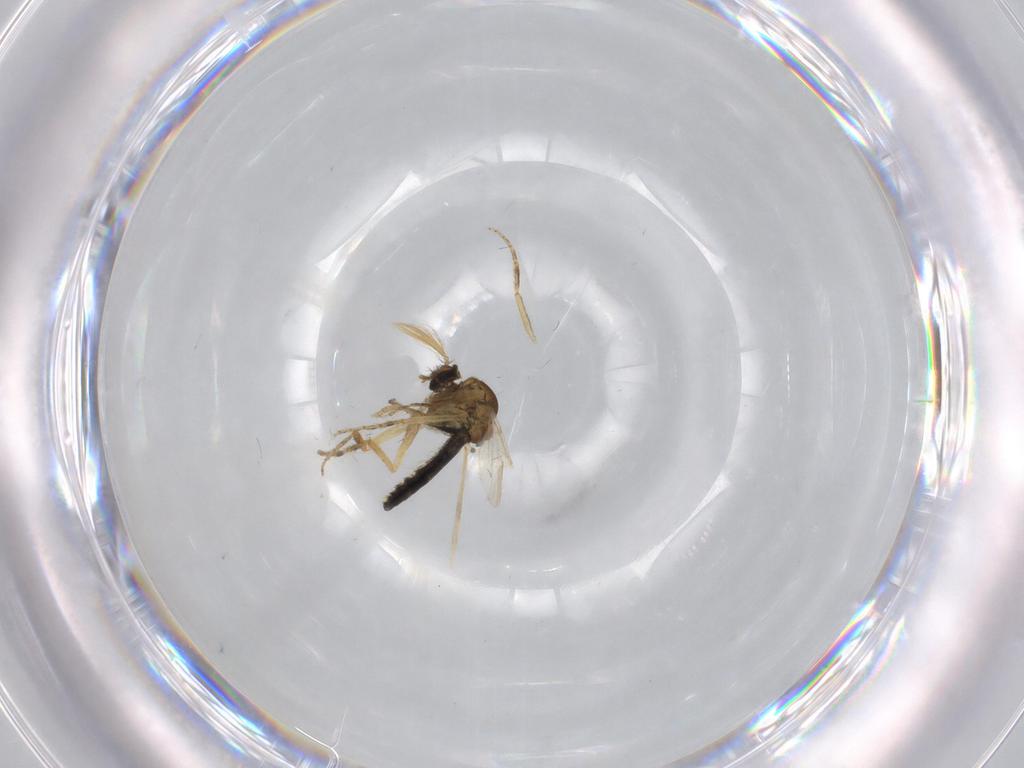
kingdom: Animalia
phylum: Arthropoda
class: Insecta
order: Diptera
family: Ceratopogonidae
